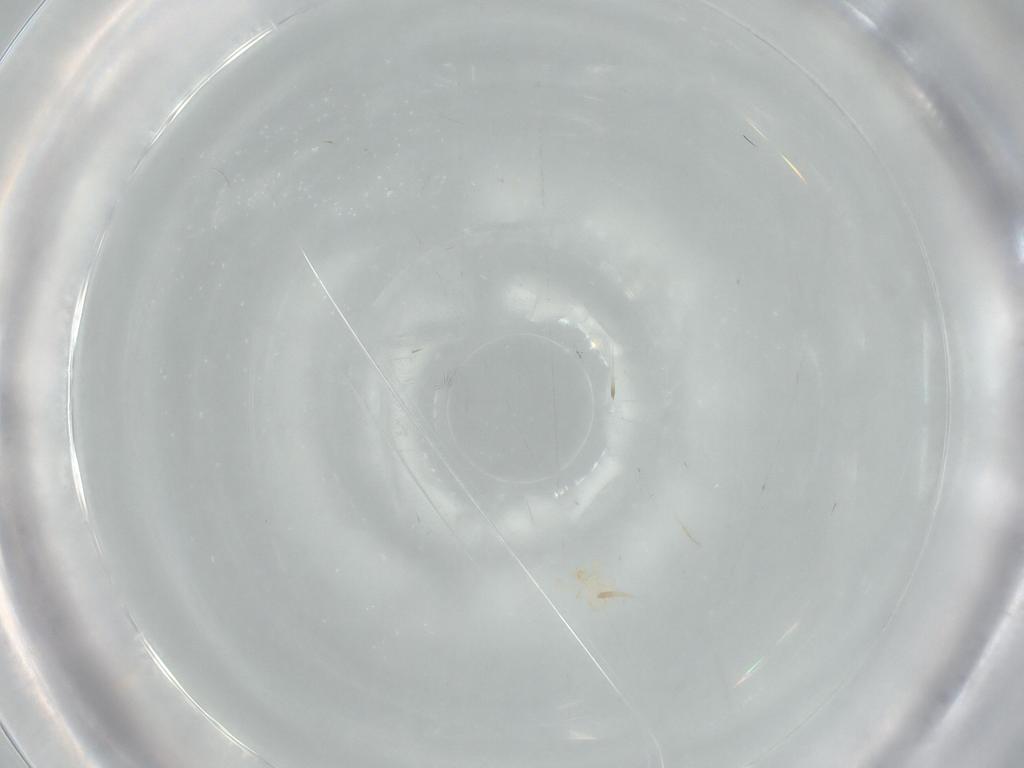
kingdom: Animalia
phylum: Arthropoda
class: Arachnida
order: Trombidiformes
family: Erythraeidae
